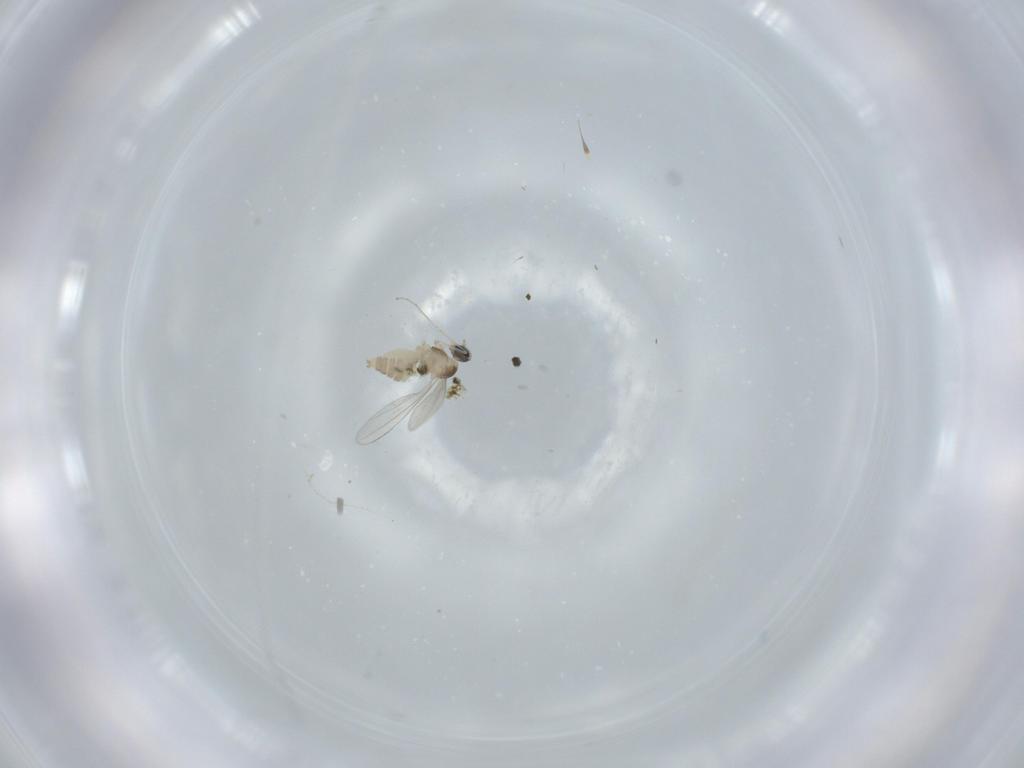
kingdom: Animalia
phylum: Arthropoda
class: Insecta
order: Diptera
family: Cecidomyiidae
